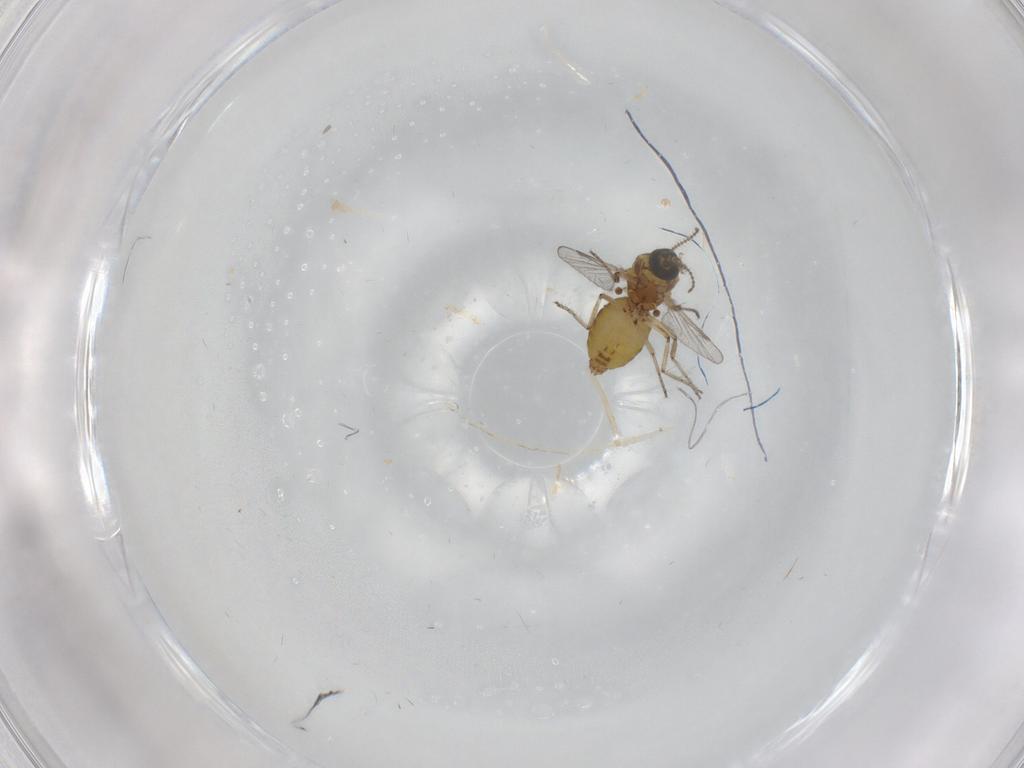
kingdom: Animalia
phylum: Arthropoda
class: Insecta
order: Diptera
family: Ceratopogonidae
